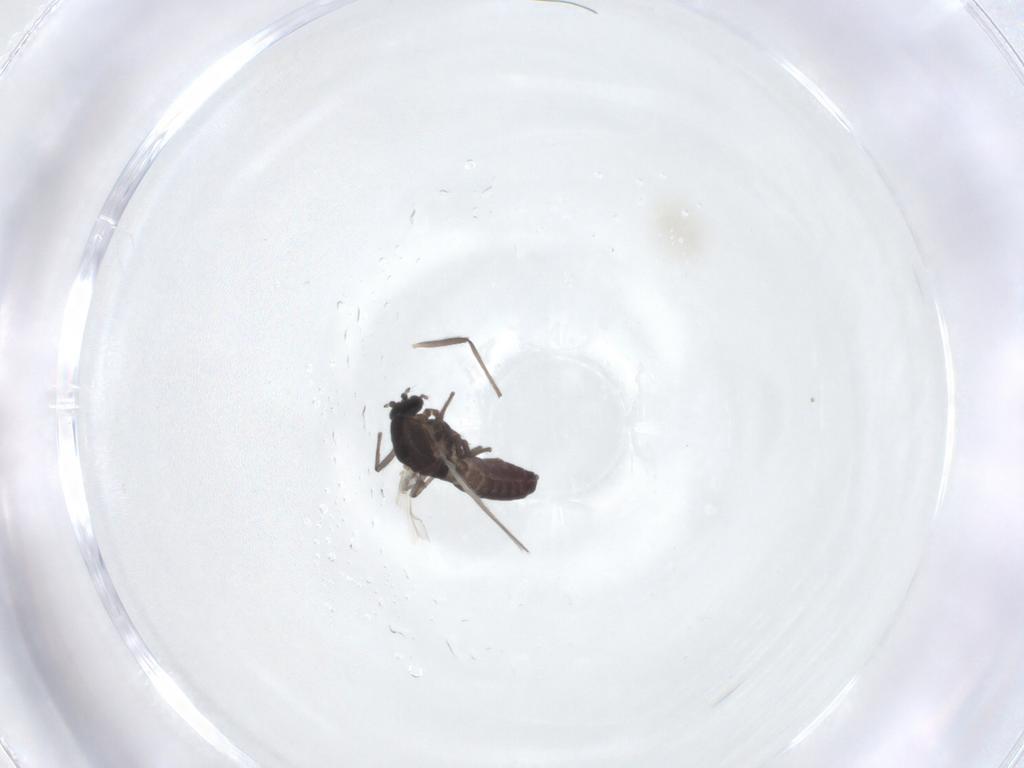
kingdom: Animalia
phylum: Arthropoda
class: Insecta
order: Diptera
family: Chironomidae
